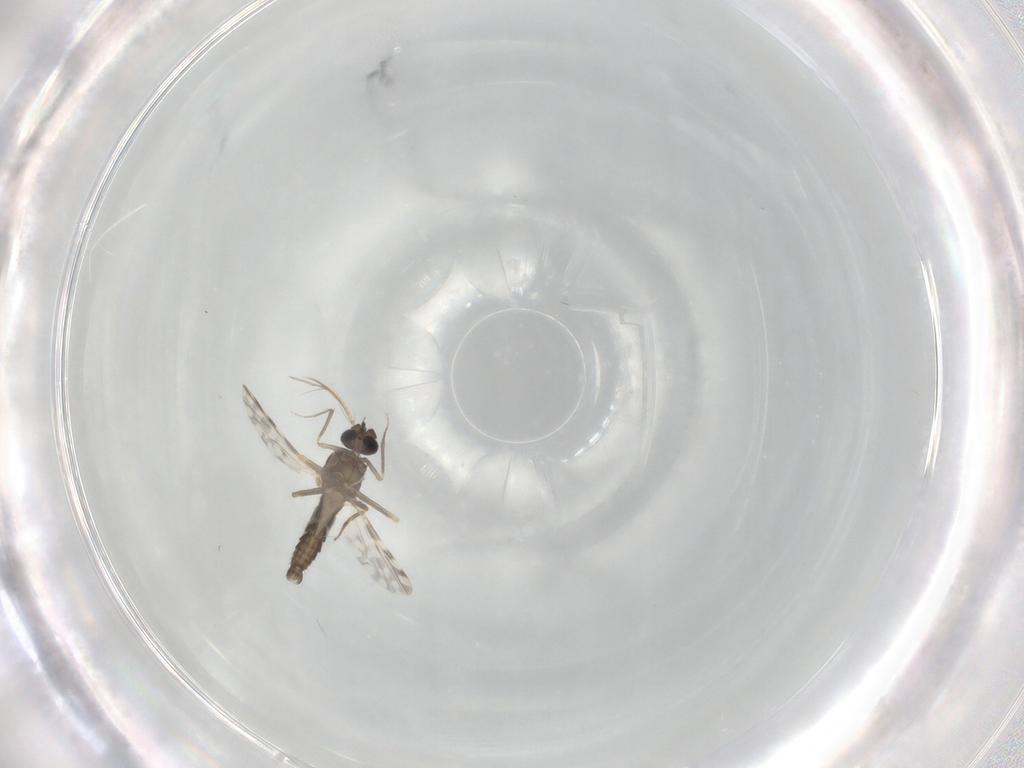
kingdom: Animalia
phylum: Arthropoda
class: Insecta
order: Diptera
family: Ceratopogonidae
